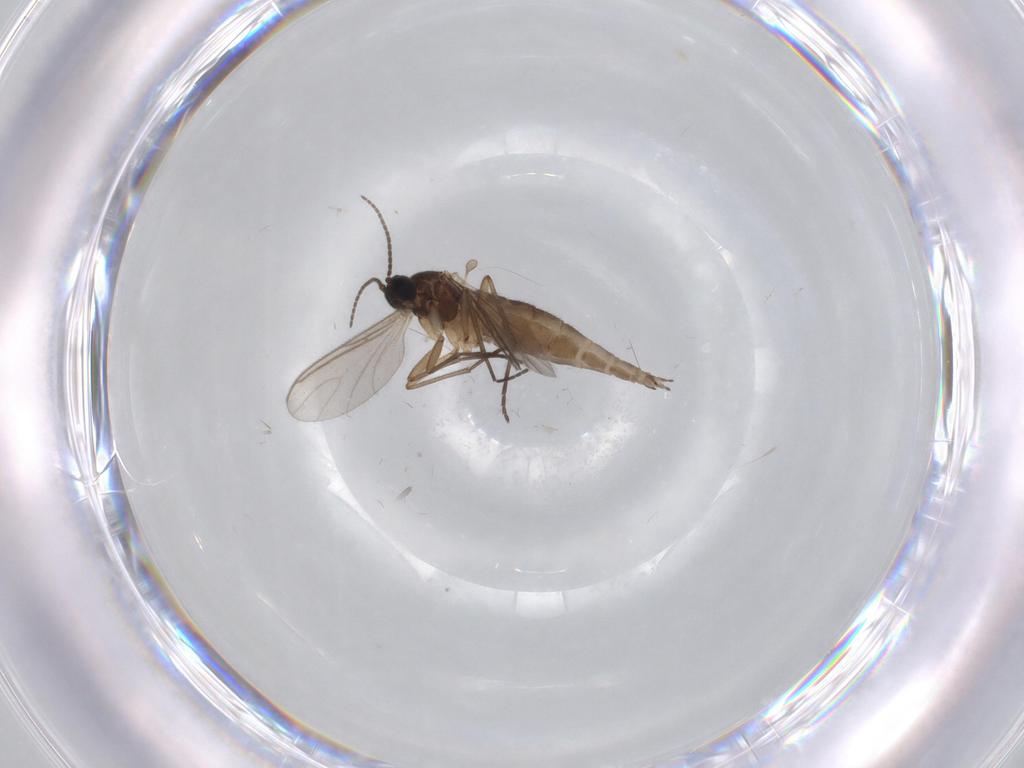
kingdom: Animalia
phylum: Arthropoda
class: Insecta
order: Diptera
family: Sciaridae
